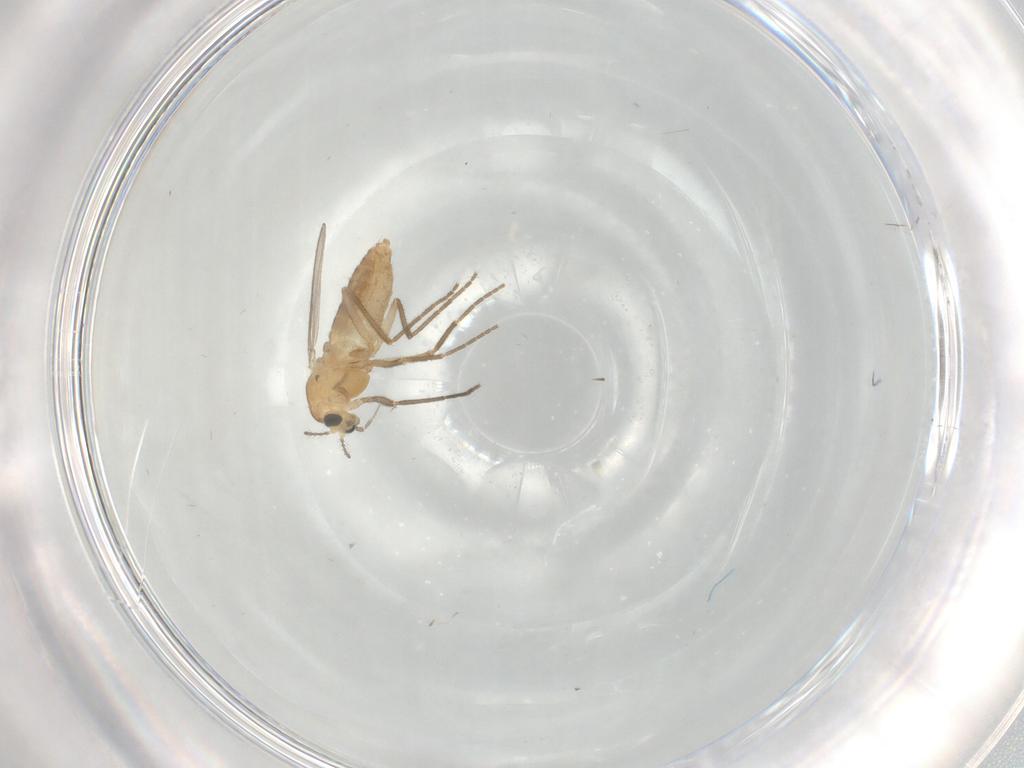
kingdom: Animalia
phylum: Arthropoda
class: Insecta
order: Diptera
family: Chironomidae
